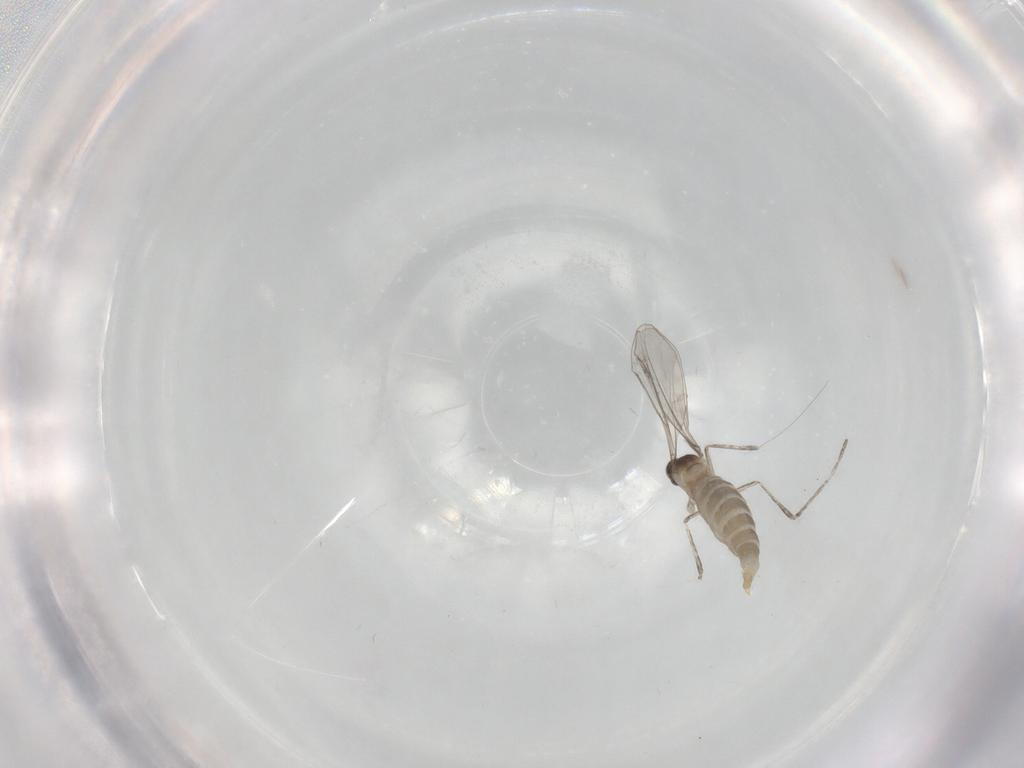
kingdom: Animalia
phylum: Arthropoda
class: Insecta
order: Diptera
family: Cecidomyiidae
